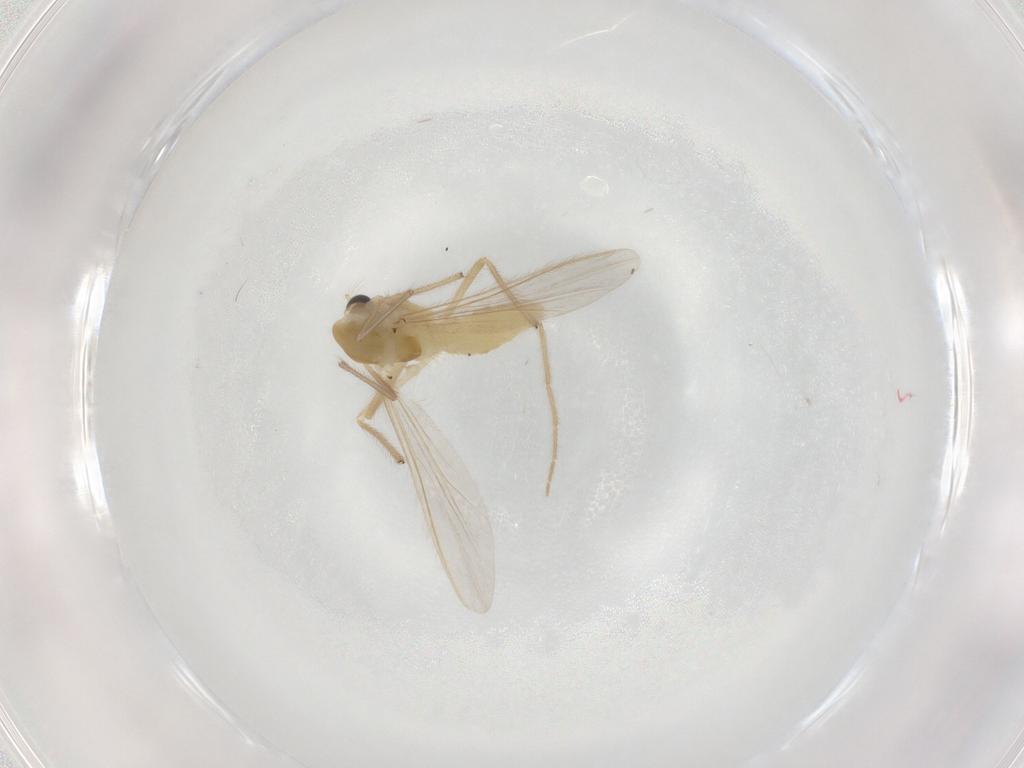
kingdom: Animalia
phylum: Arthropoda
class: Insecta
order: Diptera
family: Chironomidae
